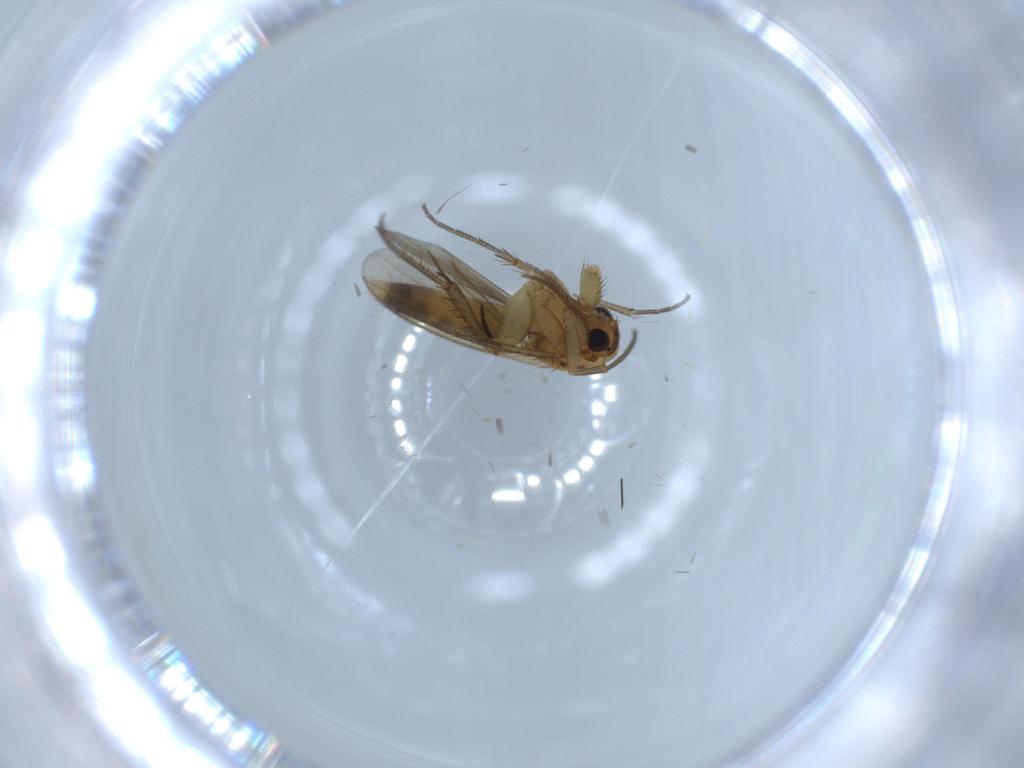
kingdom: Animalia
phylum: Arthropoda
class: Insecta
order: Diptera
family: Mycetophilidae
